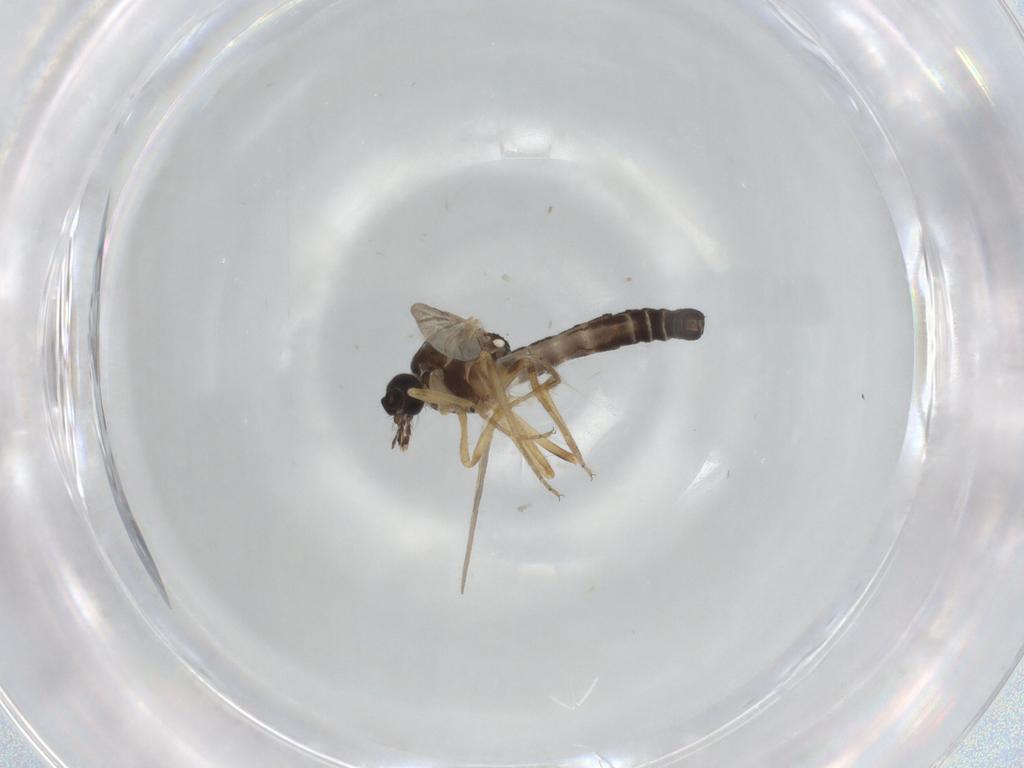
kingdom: Animalia
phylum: Arthropoda
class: Insecta
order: Diptera
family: Ceratopogonidae
